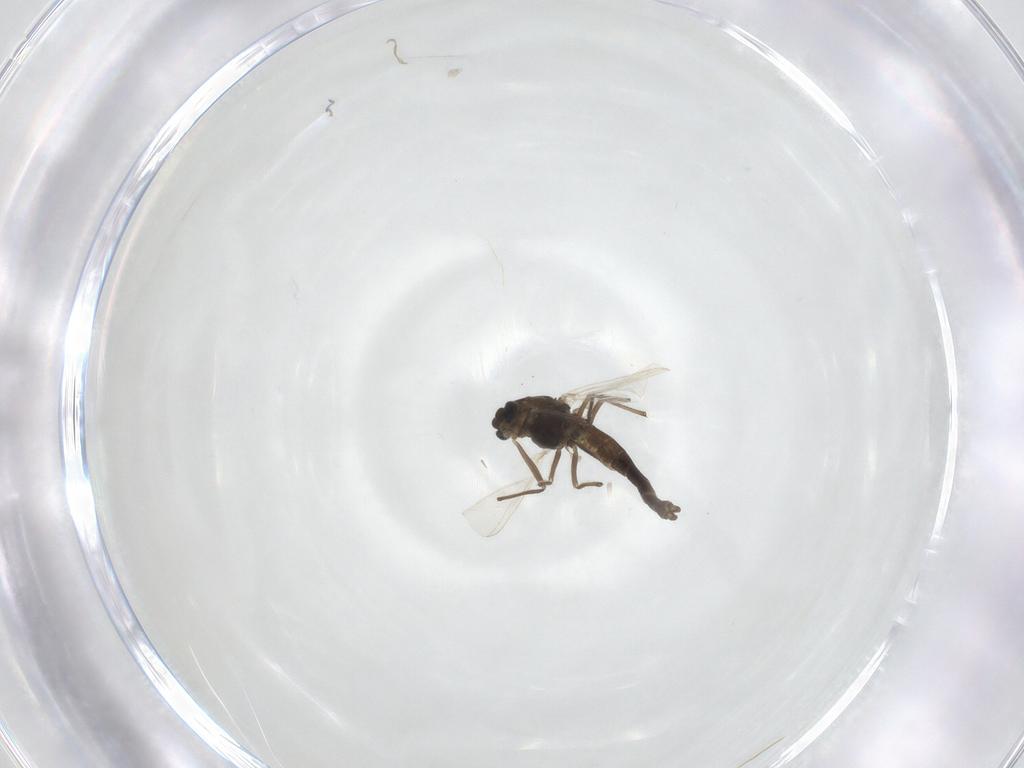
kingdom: Animalia
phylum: Arthropoda
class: Insecta
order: Diptera
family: Chironomidae
